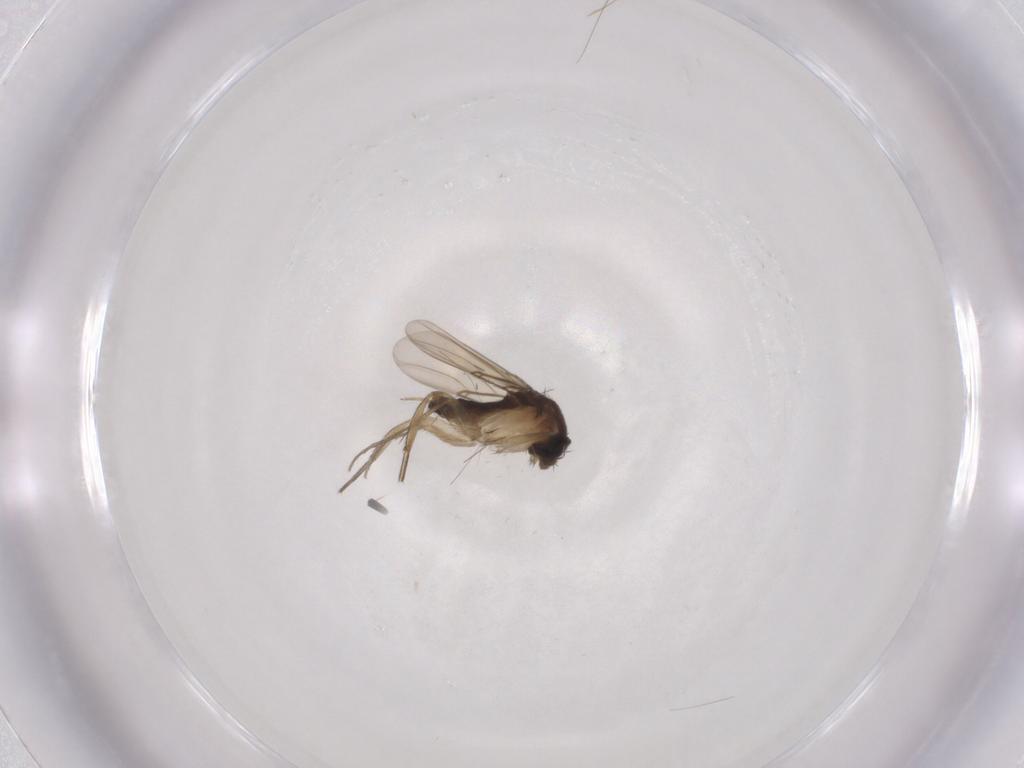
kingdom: Animalia
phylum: Arthropoda
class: Insecta
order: Diptera
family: Phoridae
